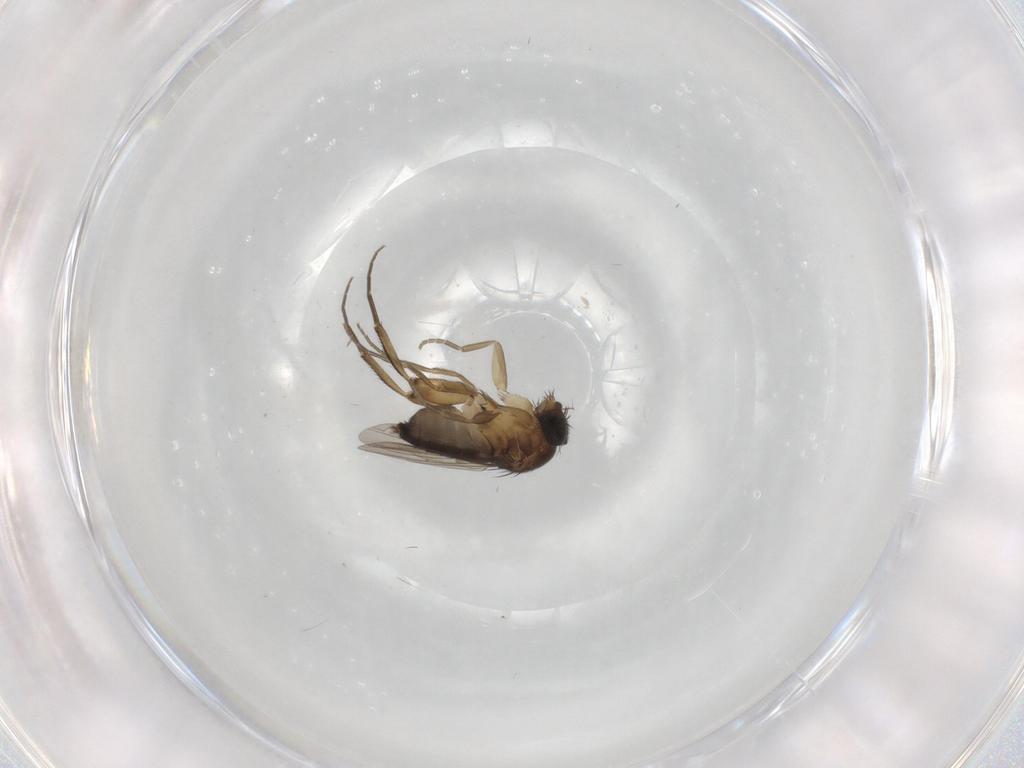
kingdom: Animalia
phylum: Arthropoda
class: Insecta
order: Diptera
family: Phoridae
